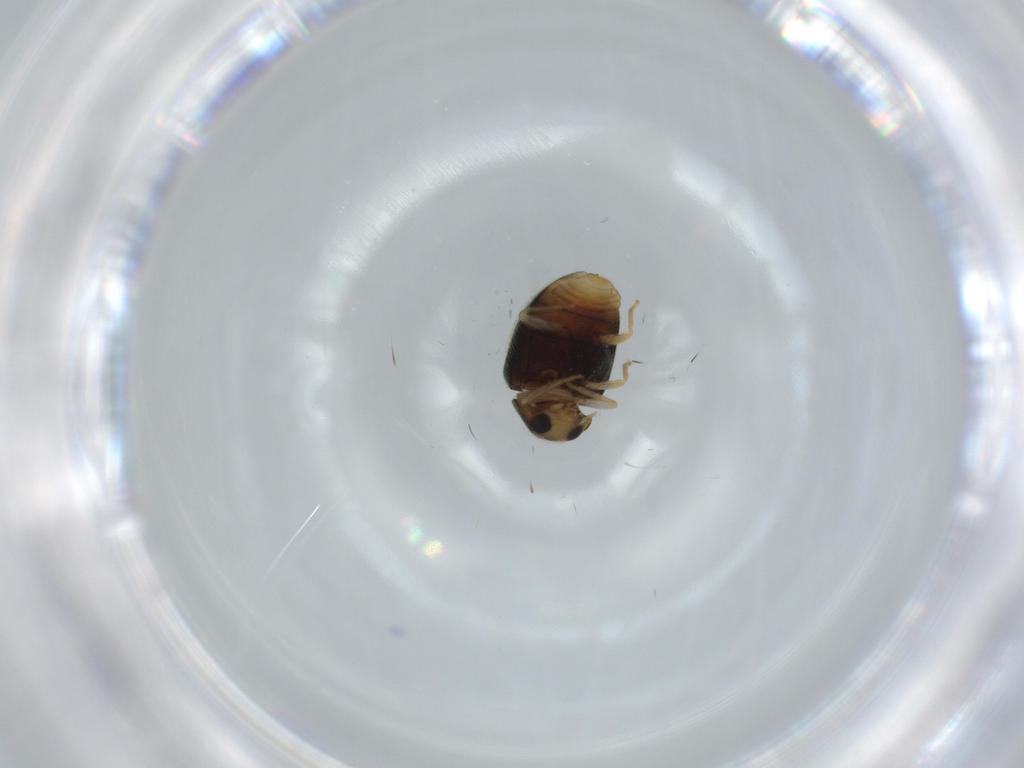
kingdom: Animalia
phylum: Arthropoda
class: Insecta
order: Coleoptera
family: Coccinellidae
